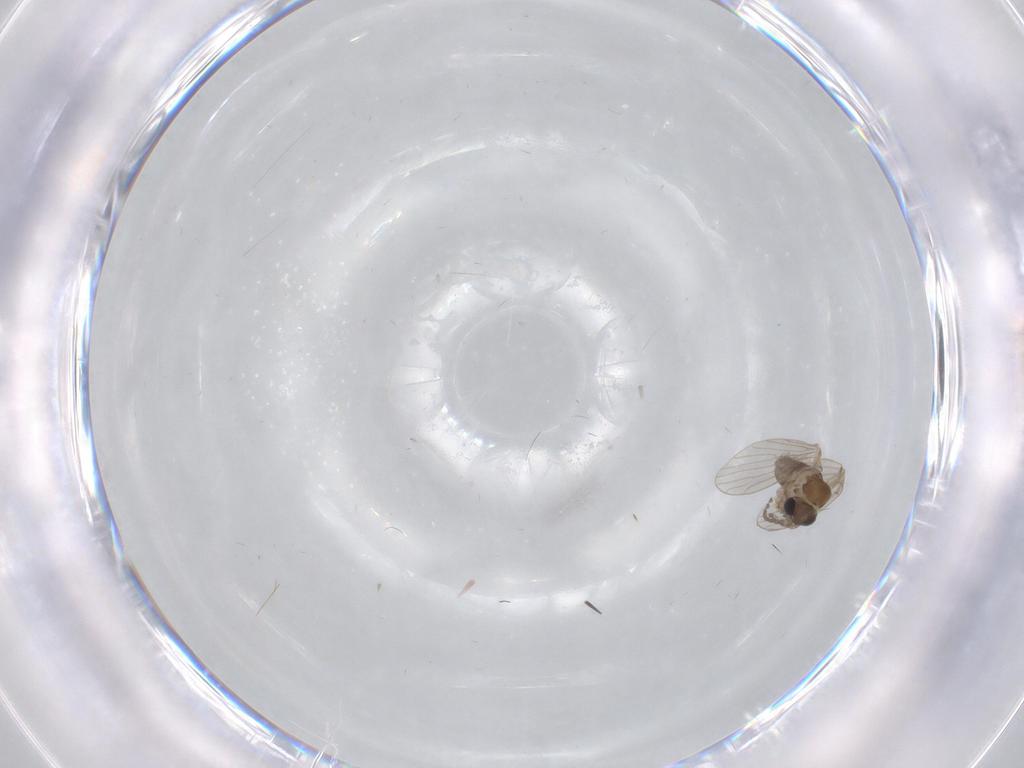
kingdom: Animalia
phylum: Arthropoda
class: Insecta
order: Diptera
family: Psychodidae
